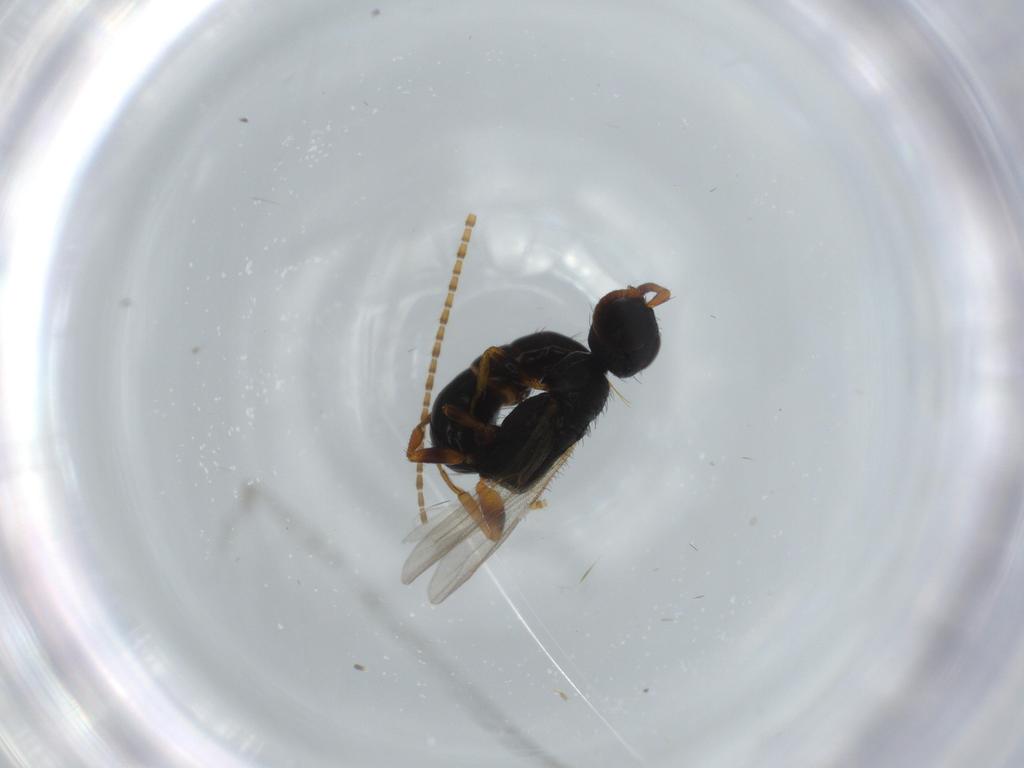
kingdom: Animalia
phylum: Arthropoda
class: Insecta
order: Hymenoptera
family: Bethylidae
